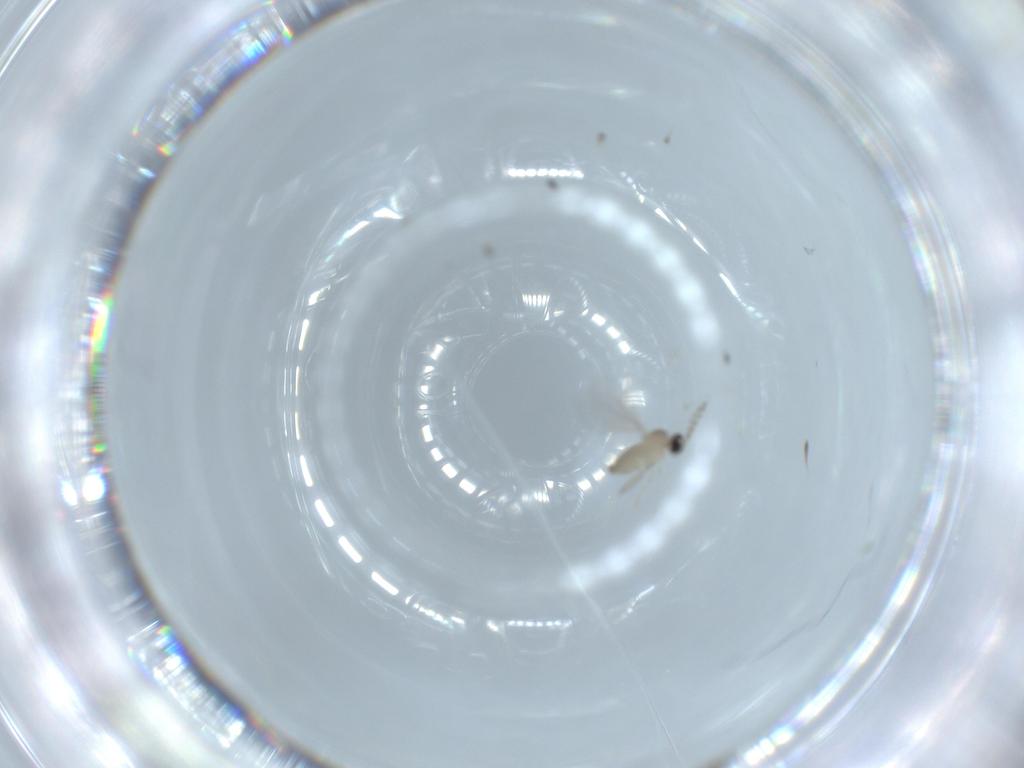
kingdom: Animalia
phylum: Arthropoda
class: Insecta
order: Diptera
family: Cecidomyiidae
